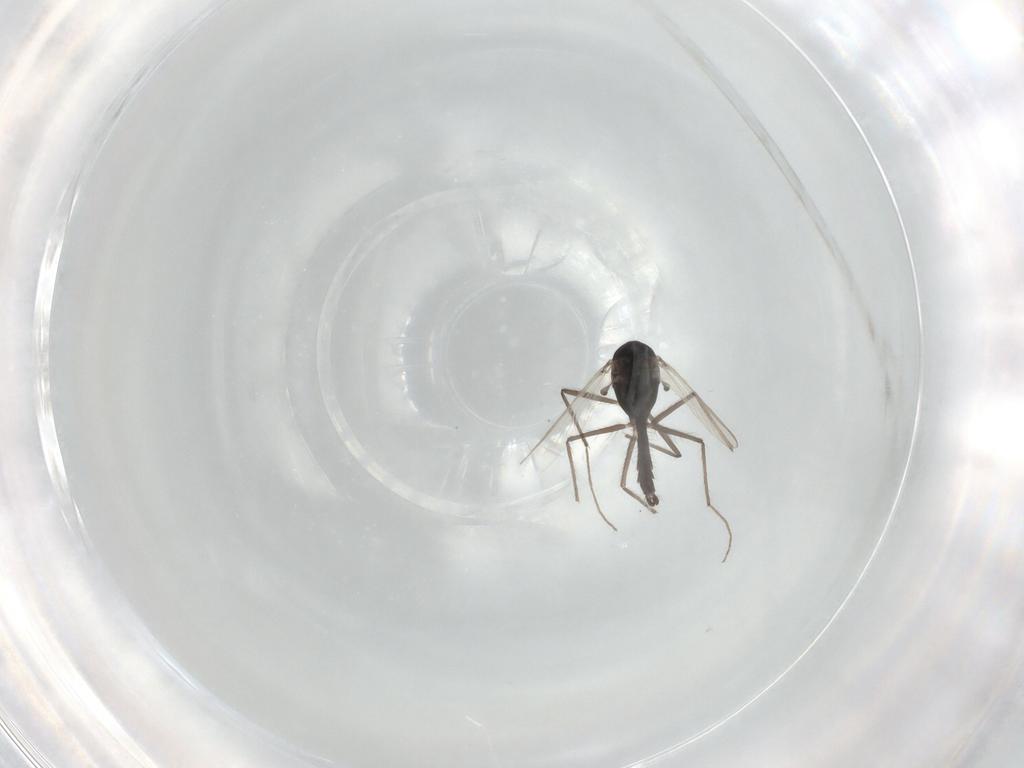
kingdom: Animalia
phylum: Arthropoda
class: Insecta
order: Diptera
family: Chironomidae
